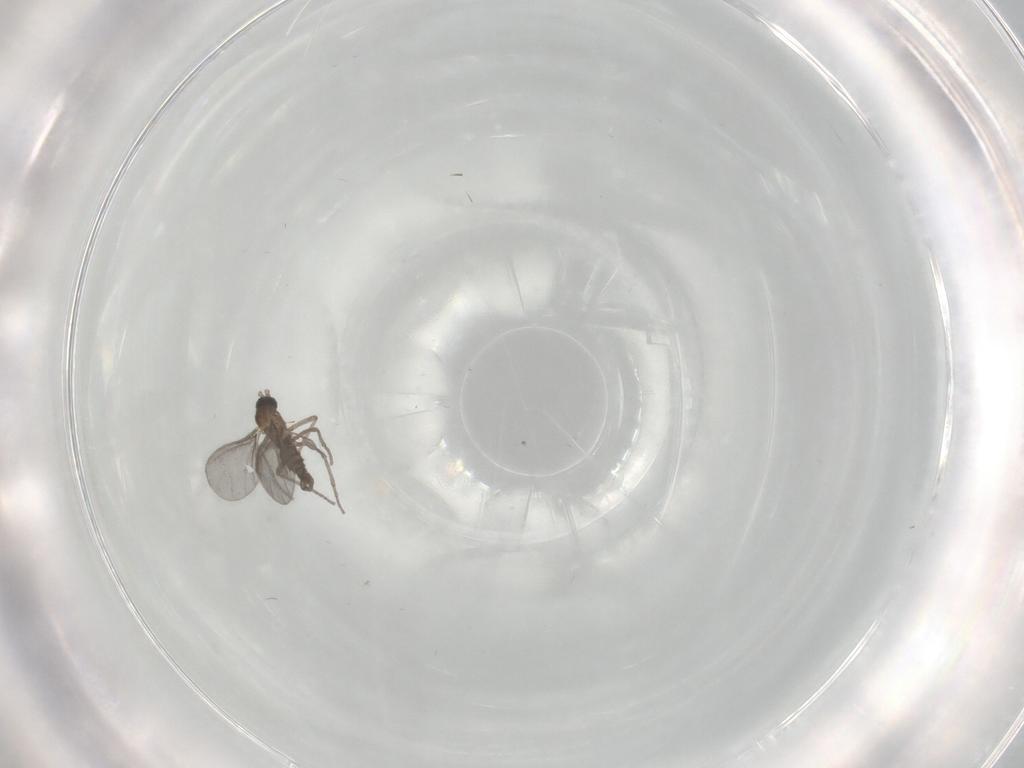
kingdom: Animalia
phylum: Arthropoda
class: Insecta
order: Diptera
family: Sciaridae
